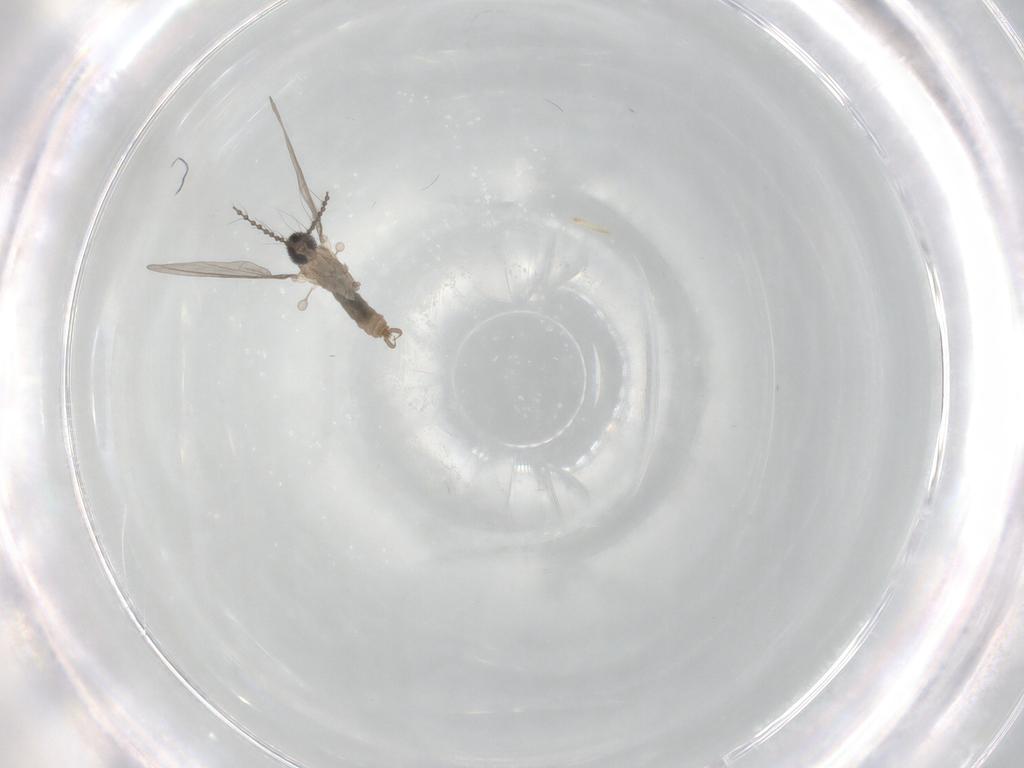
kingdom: Animalia
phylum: Arthropoda
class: Insecta
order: Diptera
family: Cecidomyiidae
